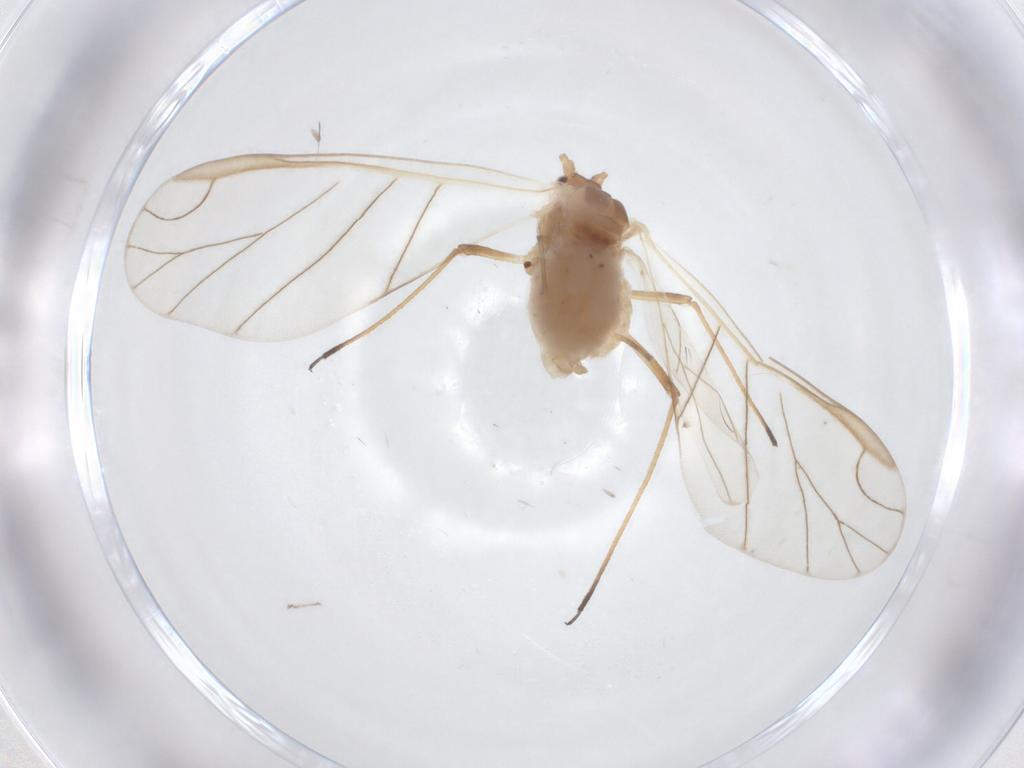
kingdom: Animalia
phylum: Arthropoda
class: Insecta
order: Hemiptera
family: Aphididae
